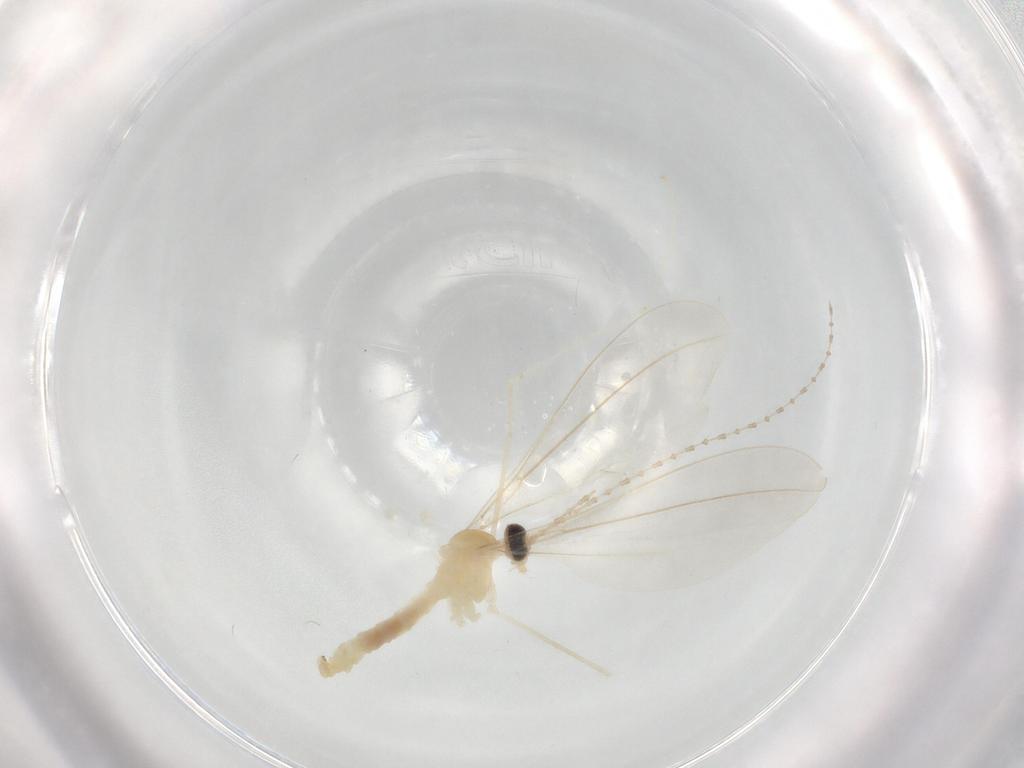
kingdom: Animalia
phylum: Arthropoda
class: Insecta
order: Diptera
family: Cecidomyiidae
